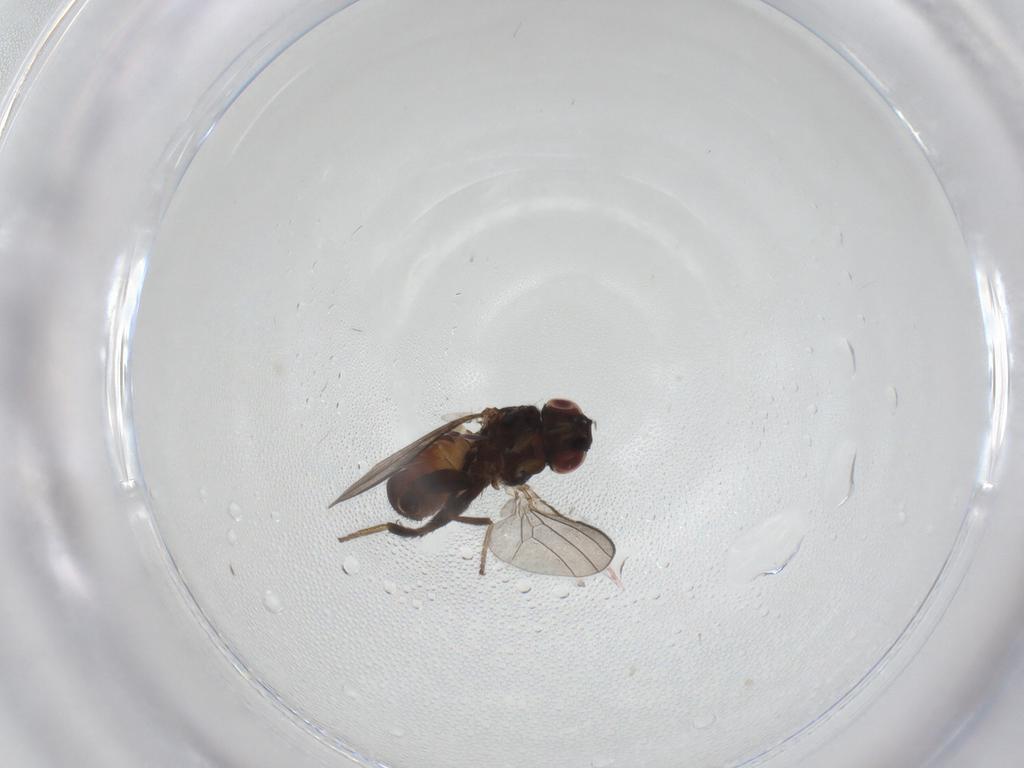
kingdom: Animalia
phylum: Arthropoda
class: Insecta
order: Diptera
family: Milichiidae
